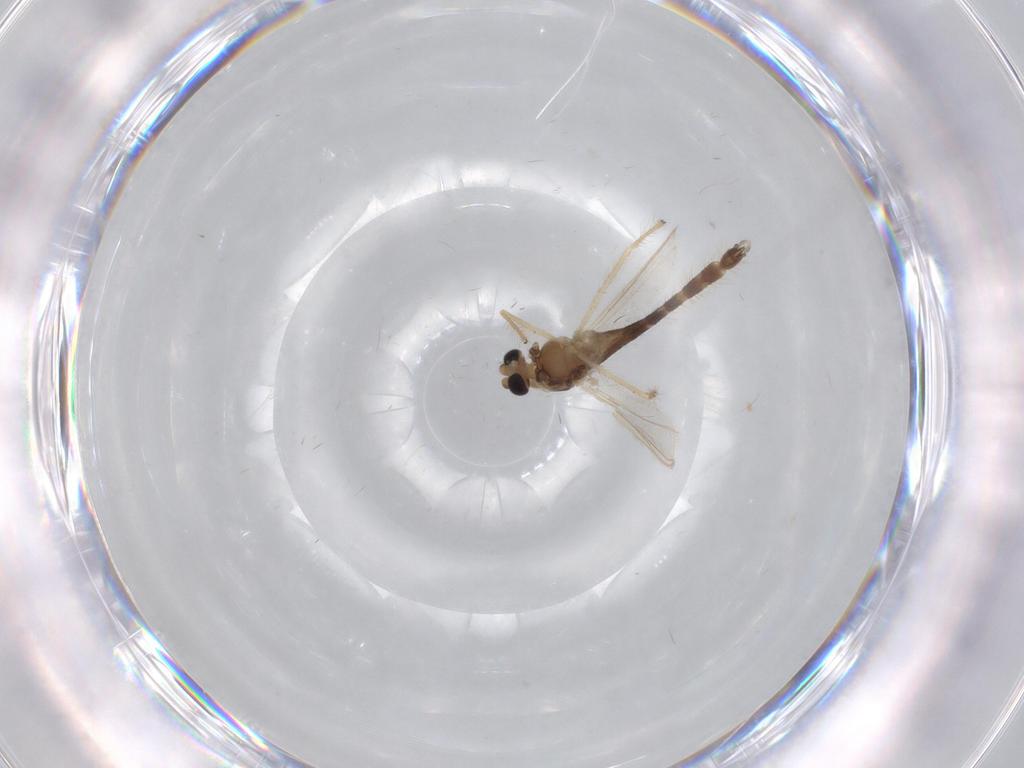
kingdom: Animalia
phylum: Arthropoda
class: Insecta
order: Diptera
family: Chironomidae
